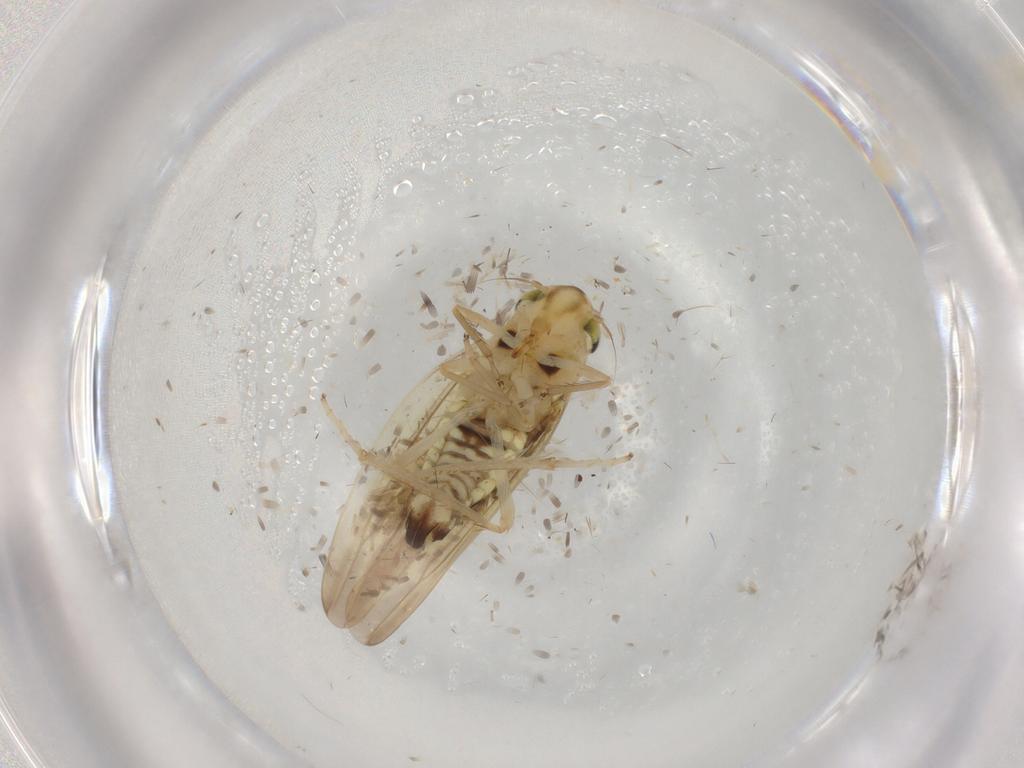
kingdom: Animalia
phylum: Arthropoda
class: Insecta
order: Hemiptera
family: Cicadellidae
